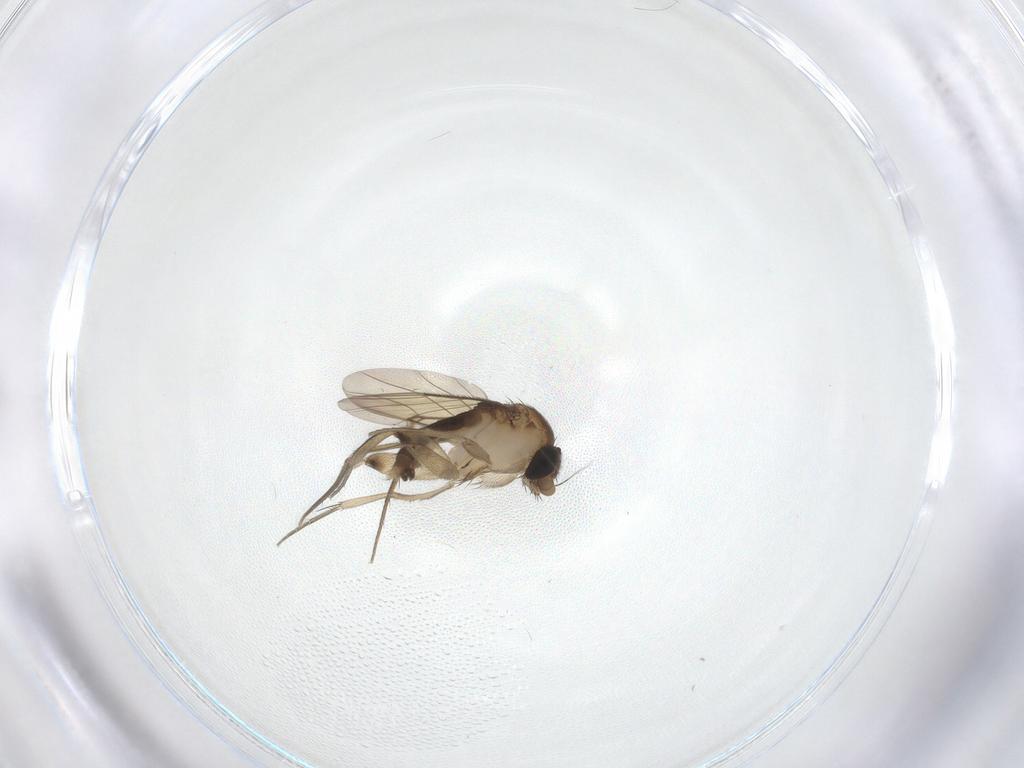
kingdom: Animalia
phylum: Arthropoda
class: Insecta
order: Diptera
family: Phoridae
